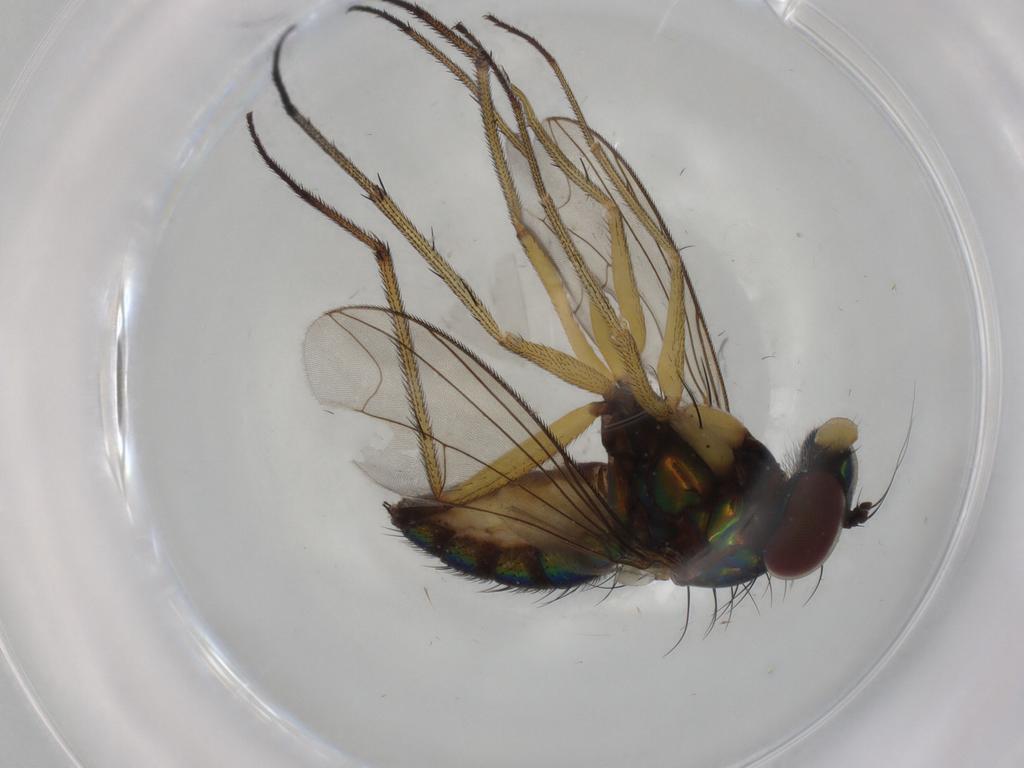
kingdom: Animalia
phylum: Arthropoda
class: Insecta
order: Diptera
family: Dolichopodidae
